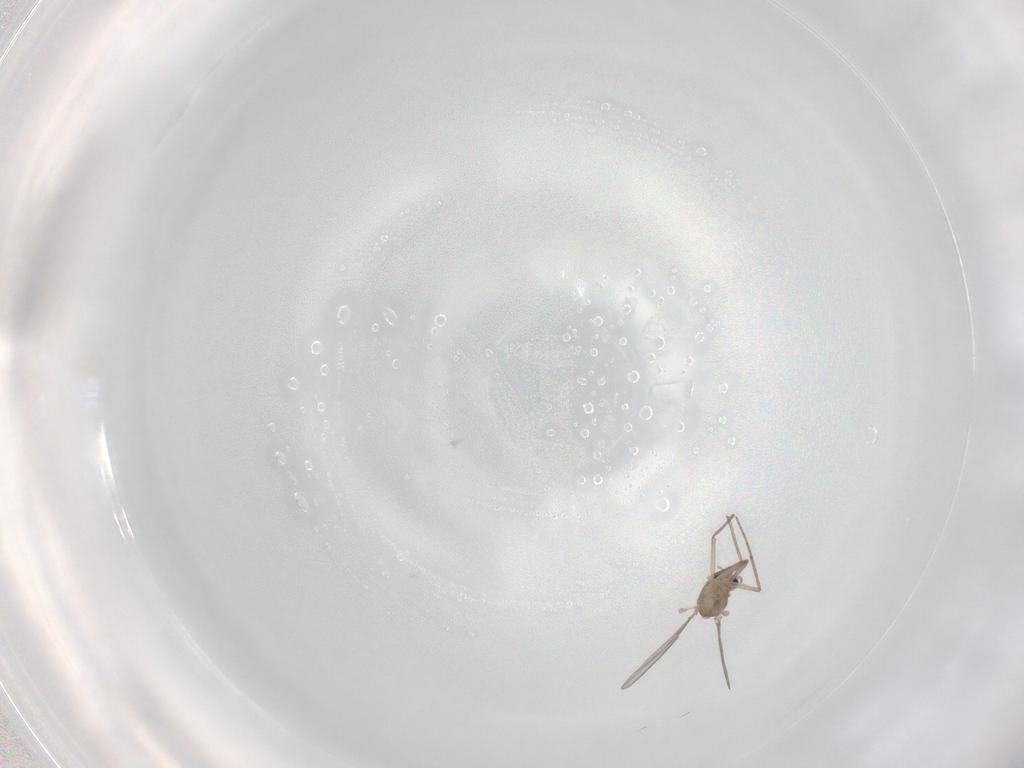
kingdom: Animalia
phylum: Arthropoda
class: Insecta
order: Diptera
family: Chironomidae
